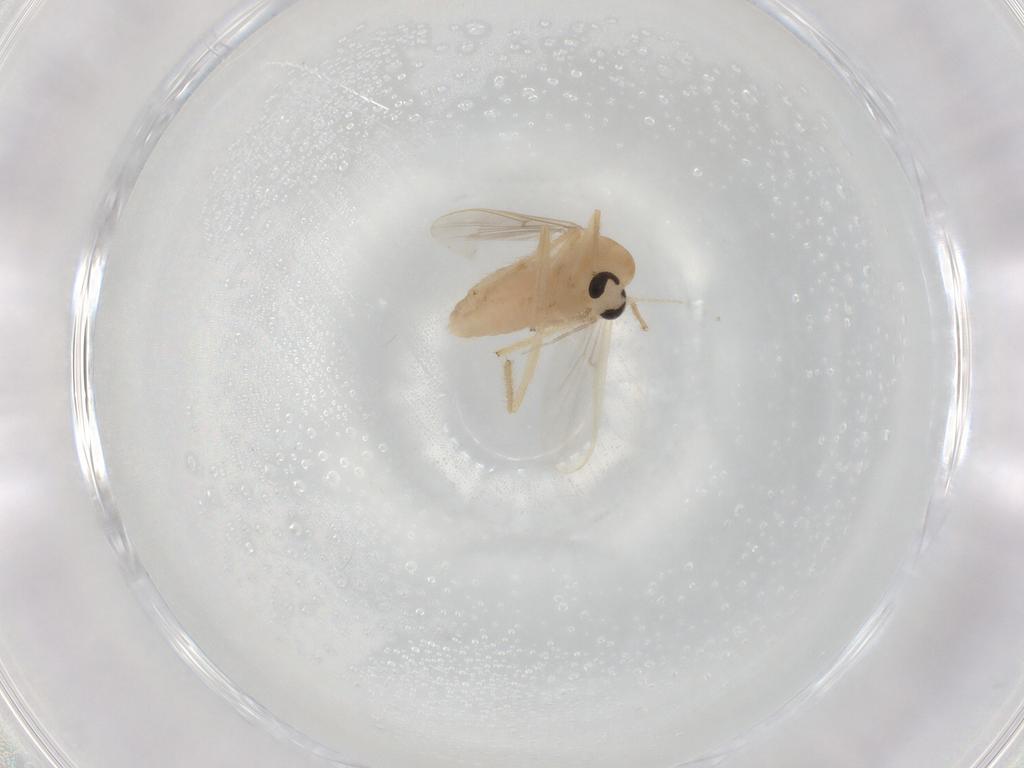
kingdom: Animalia
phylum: Arthropoda
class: Insecta
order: Diptera
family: Chironomidae
